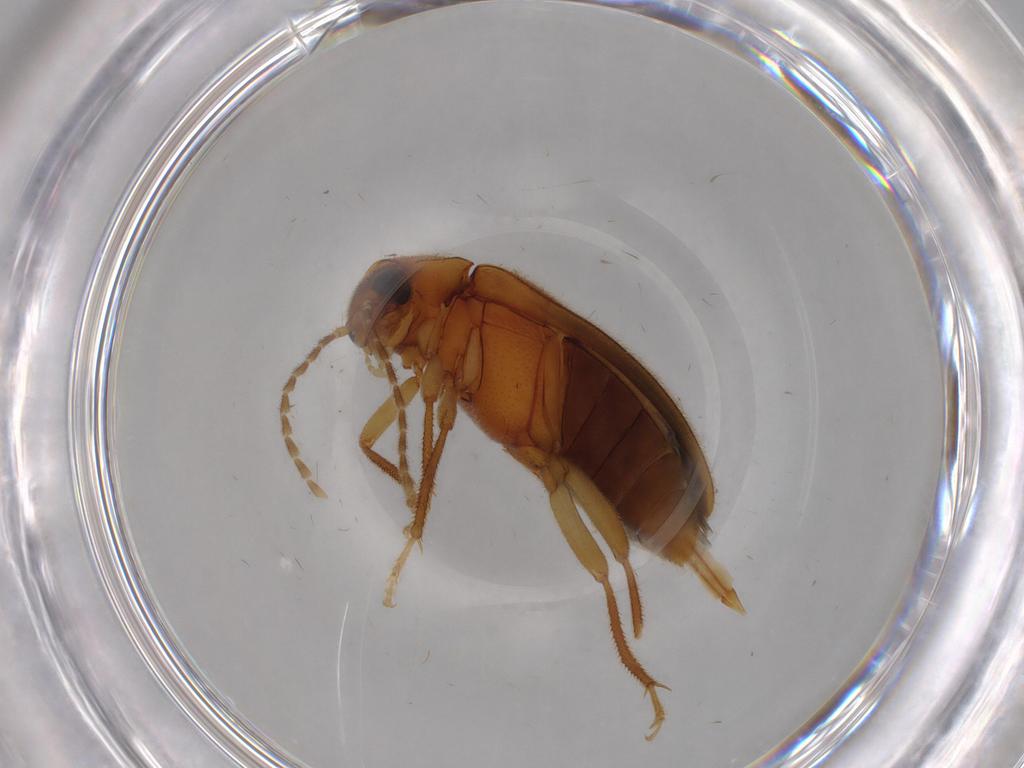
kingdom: Animalia
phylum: Arthropoda
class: Insecta
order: Coleoptera
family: Ptilodactylidae
